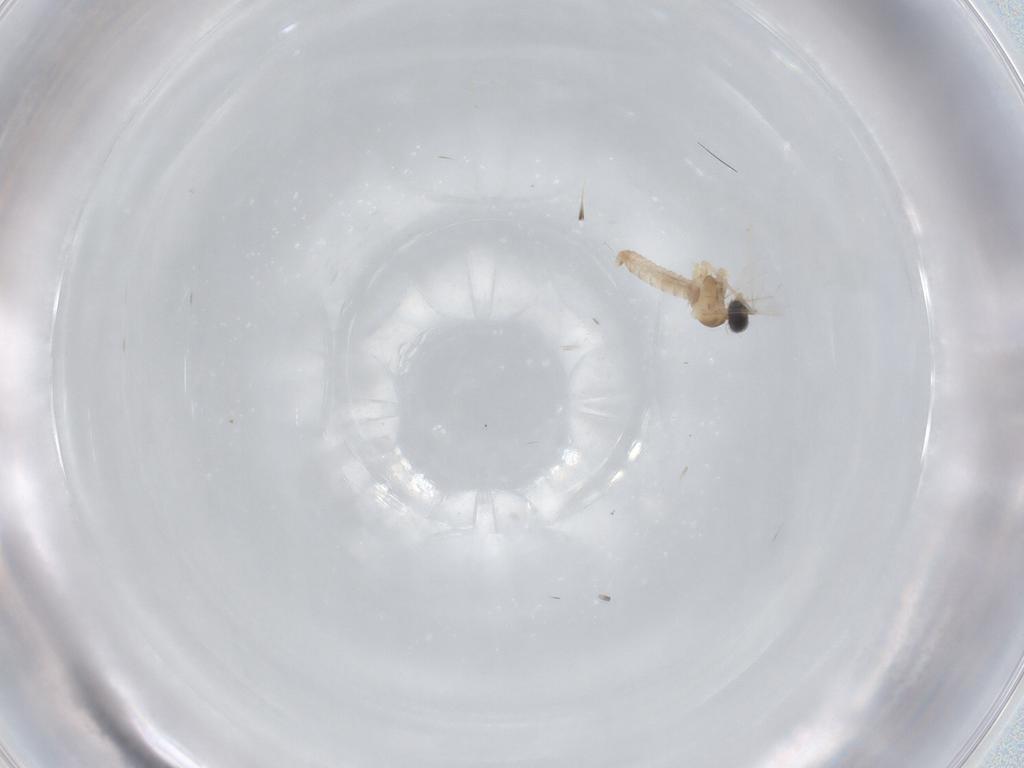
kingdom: Animalia
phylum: Arthropoda
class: Insecta
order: Diptera
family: Cecidomyiidae
